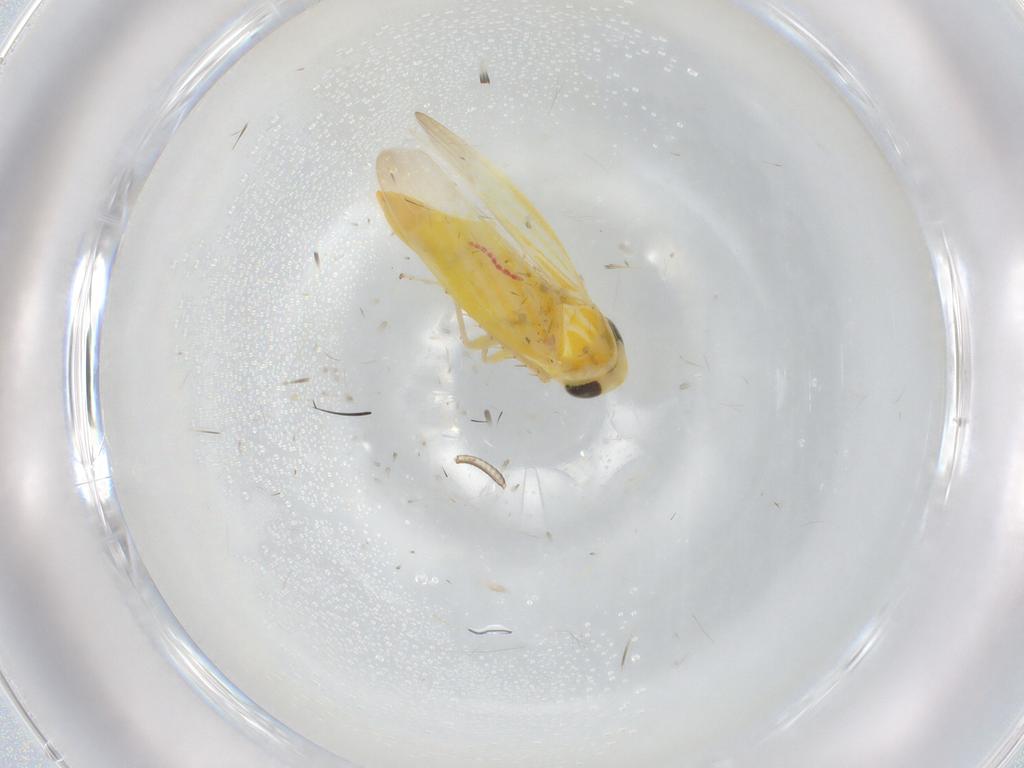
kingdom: Animalia
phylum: Arthropoda
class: Insecta
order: Hemiptera
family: Cicadellidae
